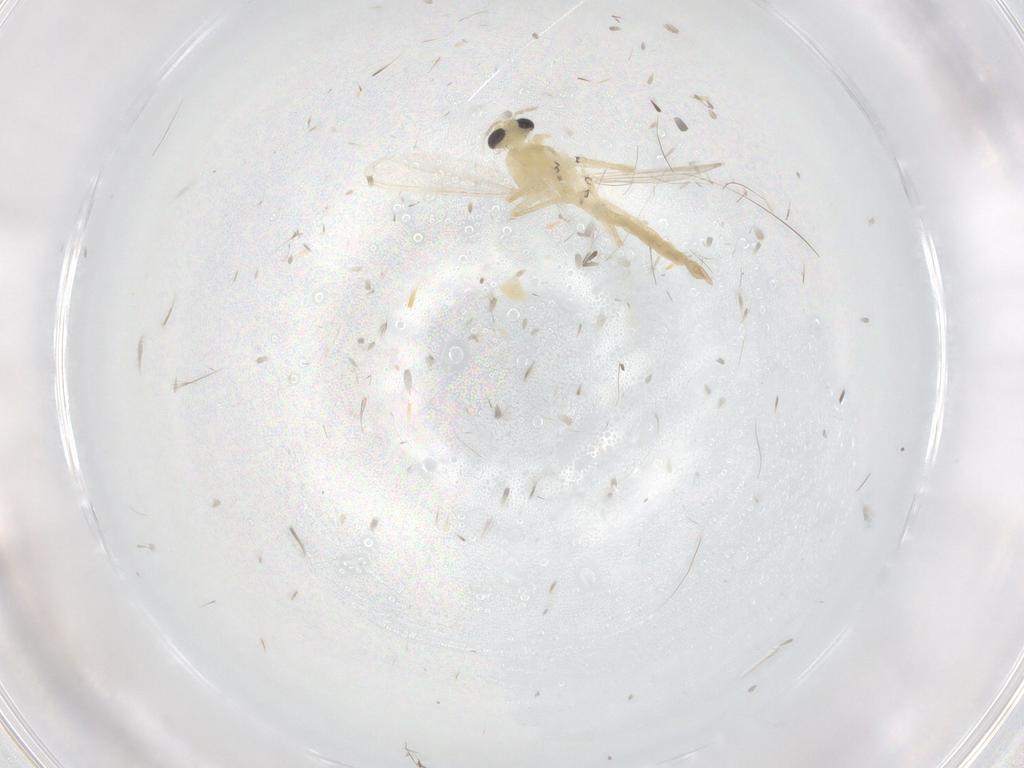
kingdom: Animalia
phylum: Arthropoda
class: Insecta
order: Diptera
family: Chironomidae
